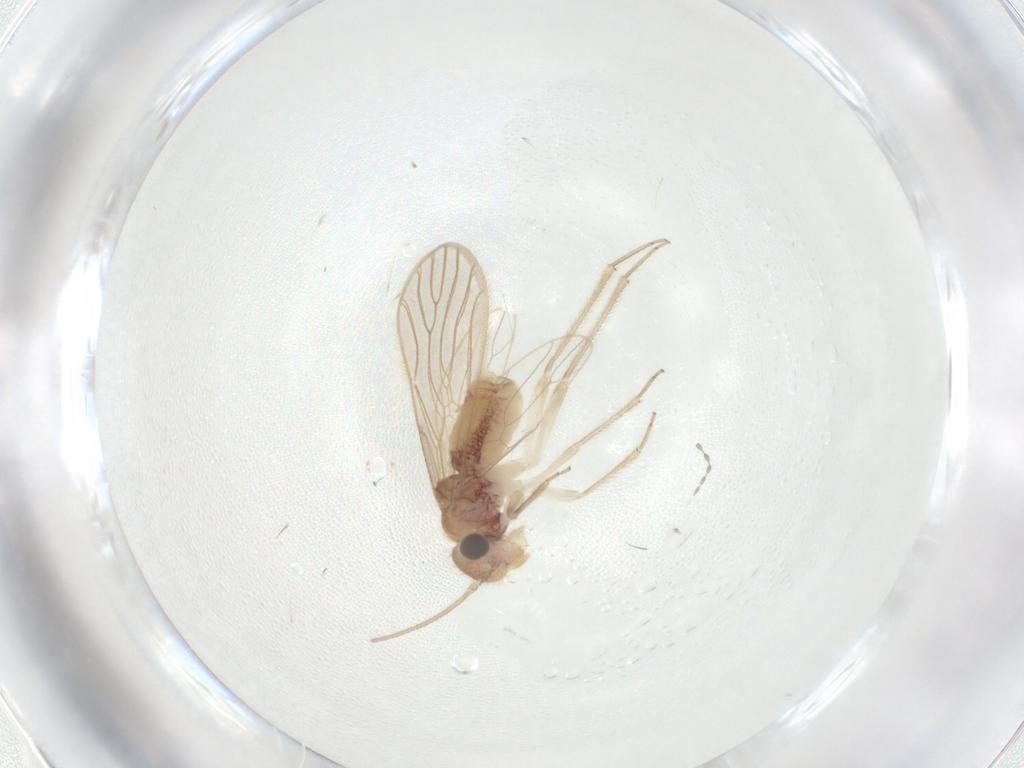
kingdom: Animalia
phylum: Arthropoda
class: Insecta
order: Psocodea
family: Cladiopsocidae
